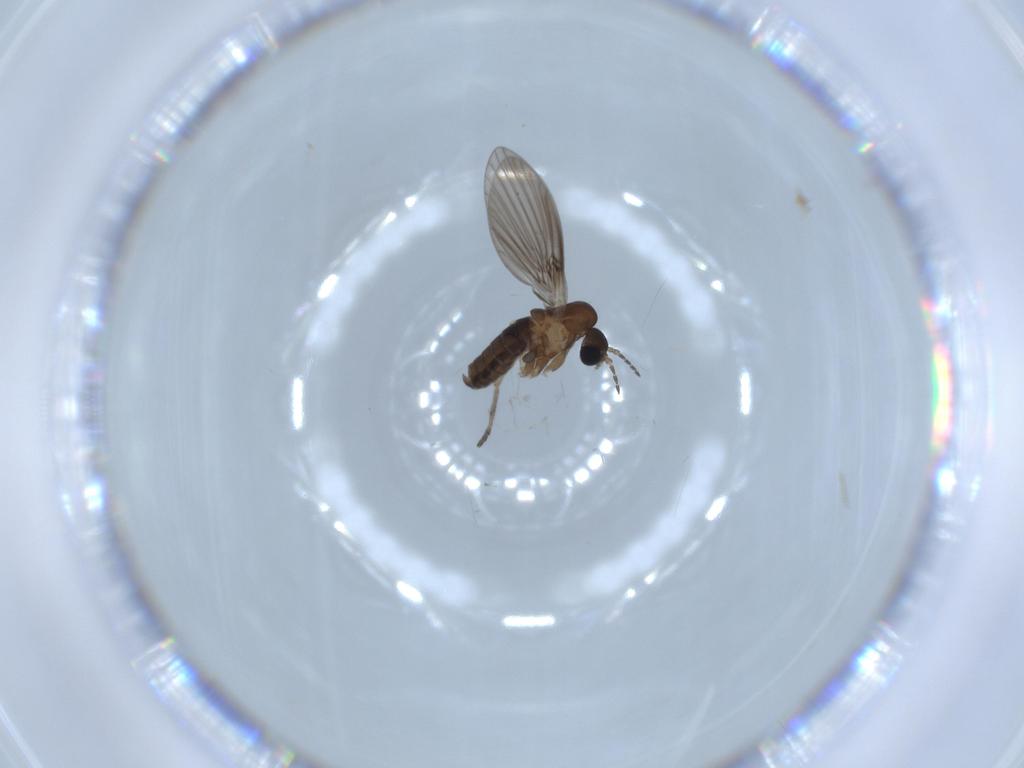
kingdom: Animalia
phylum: Arthropoda
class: Insecta
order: Diptera
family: Psychodidae
